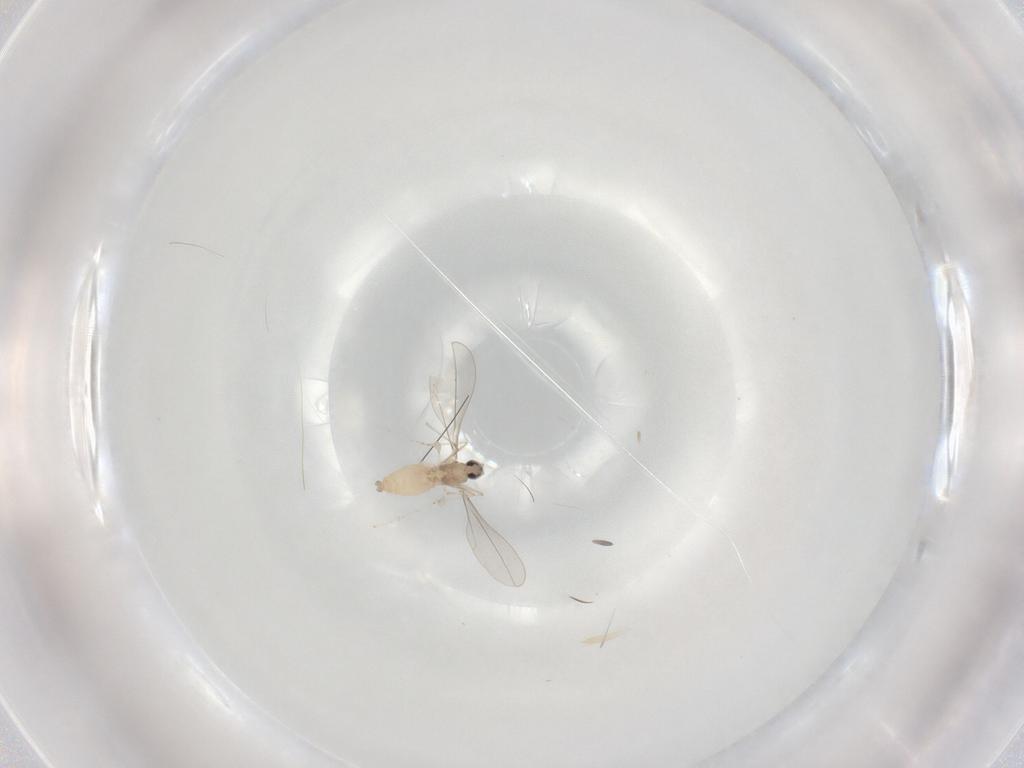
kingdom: Animalia
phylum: Arthropoda
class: Insecta
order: Diptera
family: Cecidomyiidae
